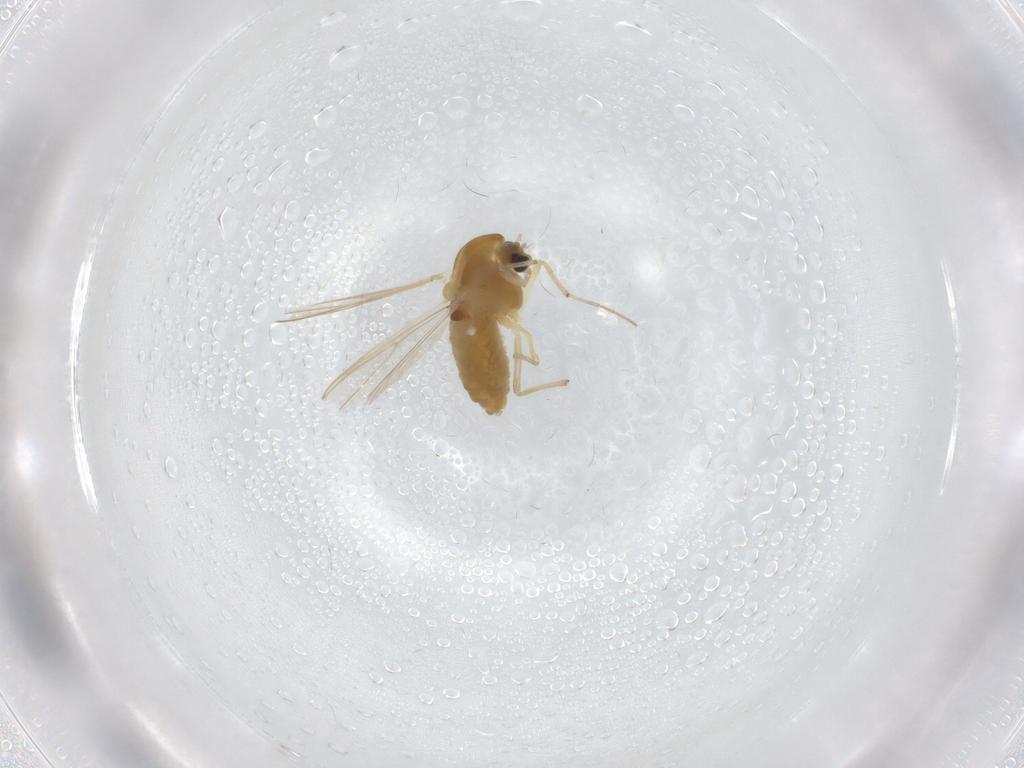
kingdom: Animalia
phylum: Arthropoda
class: Insecta
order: Diptera
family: Chironomidae
